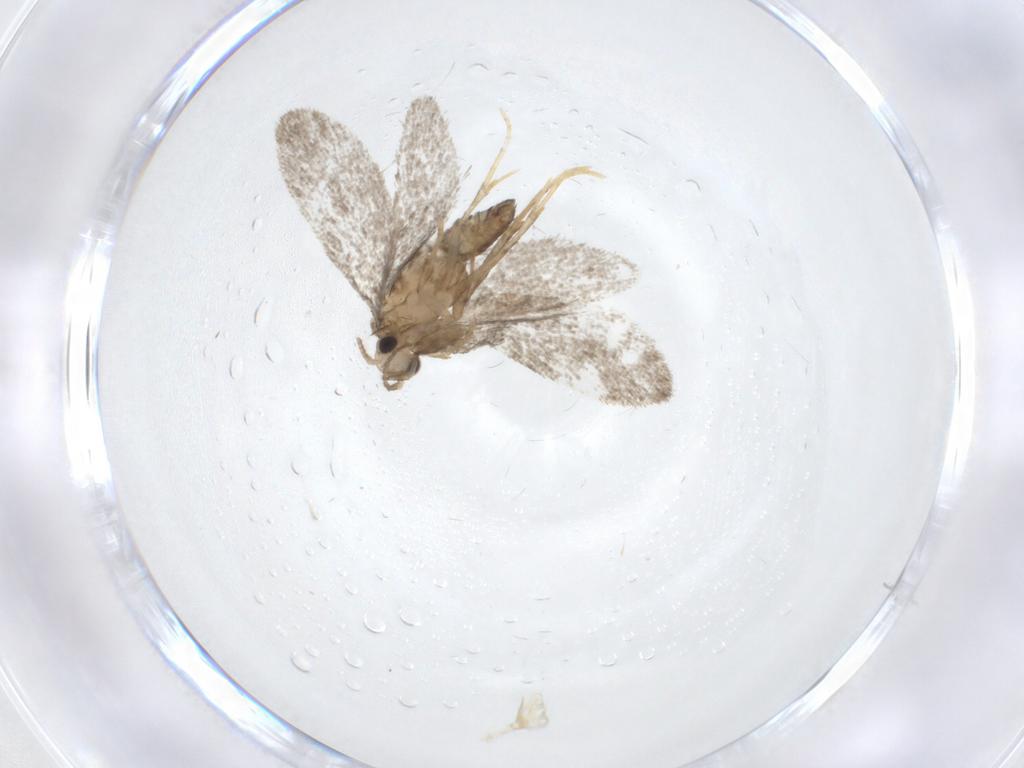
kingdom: Animalia
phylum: Arthropoda
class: Insecta
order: Lepidoptera
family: Psychidae
